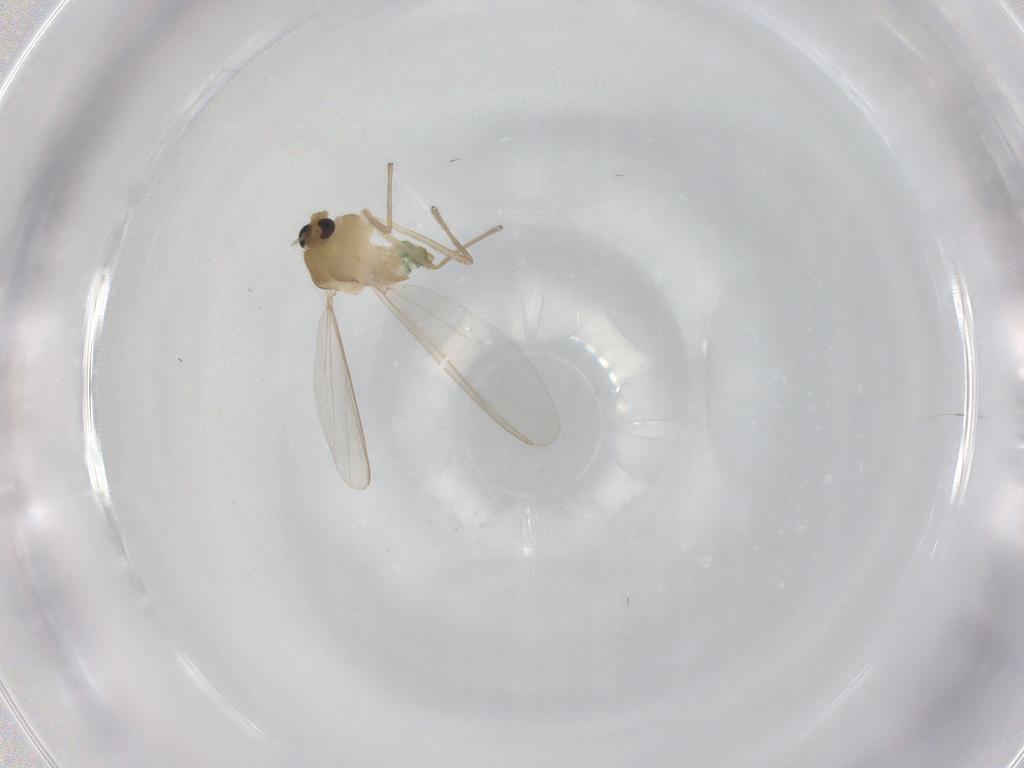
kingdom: Animalia
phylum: Arthropoda
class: Insecta
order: Diptera
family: Chironomidae
